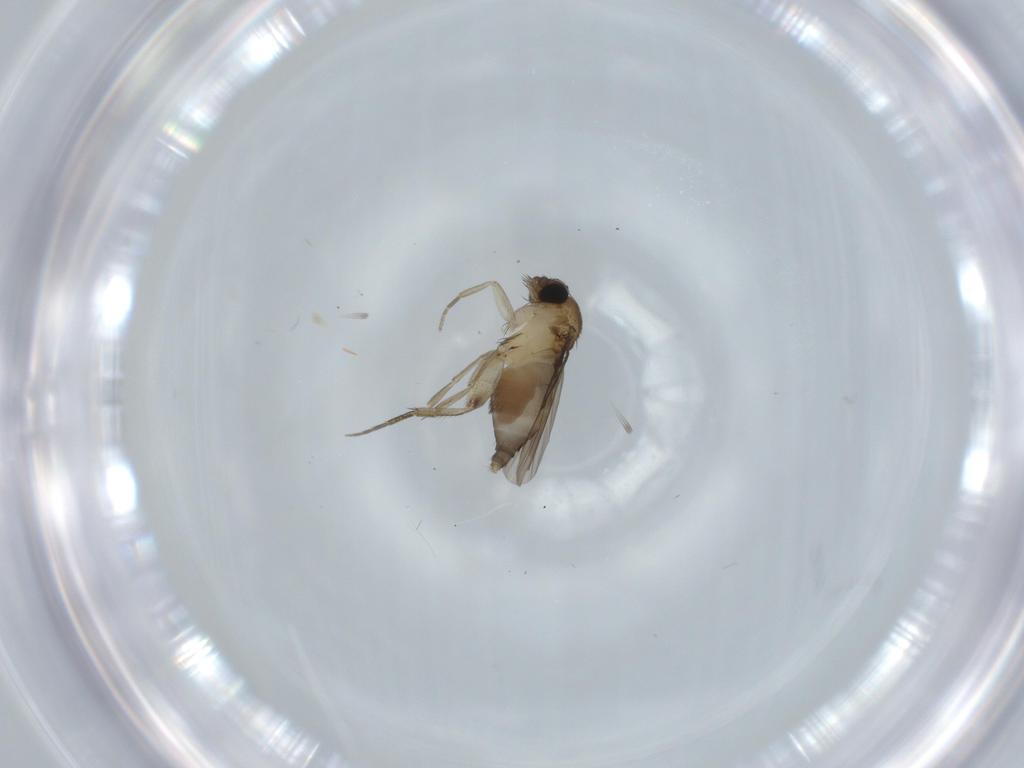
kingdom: Animalia
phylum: Arthropoda
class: Insecta
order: Diptera
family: Phoridae
